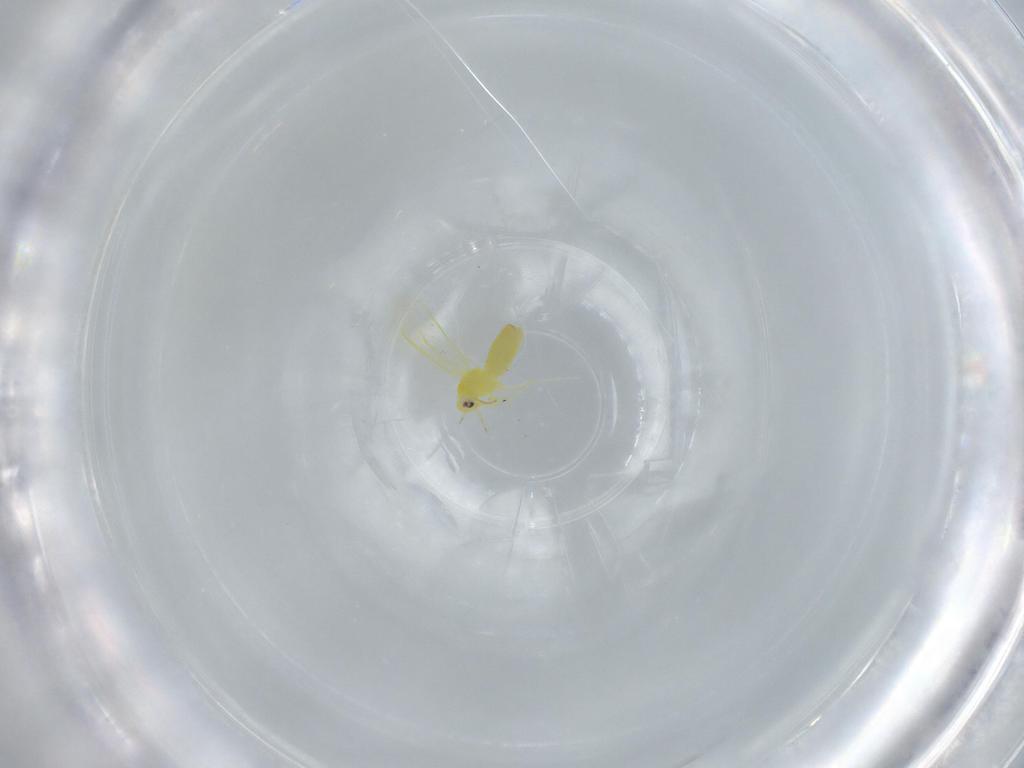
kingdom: Animalia
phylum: Arthropoda
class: Insecta
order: Hemiptera
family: Aleyrodidae
